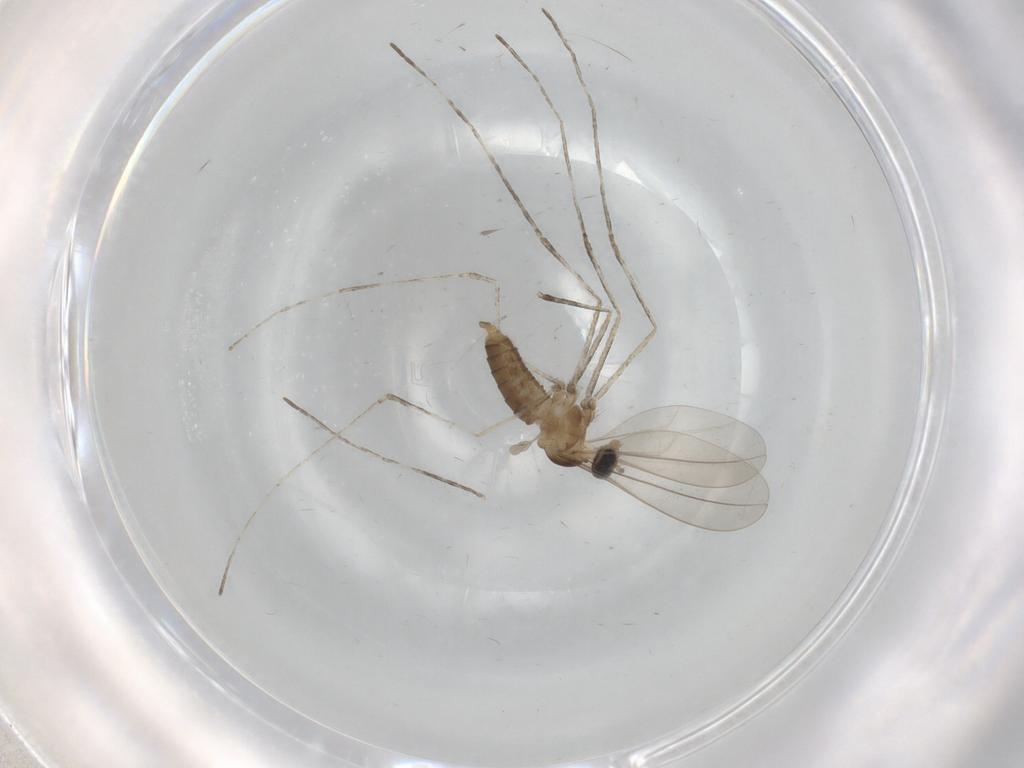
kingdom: Animalia
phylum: Arthropoda
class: Insecta
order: Diptera
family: Cecidomyiidae
